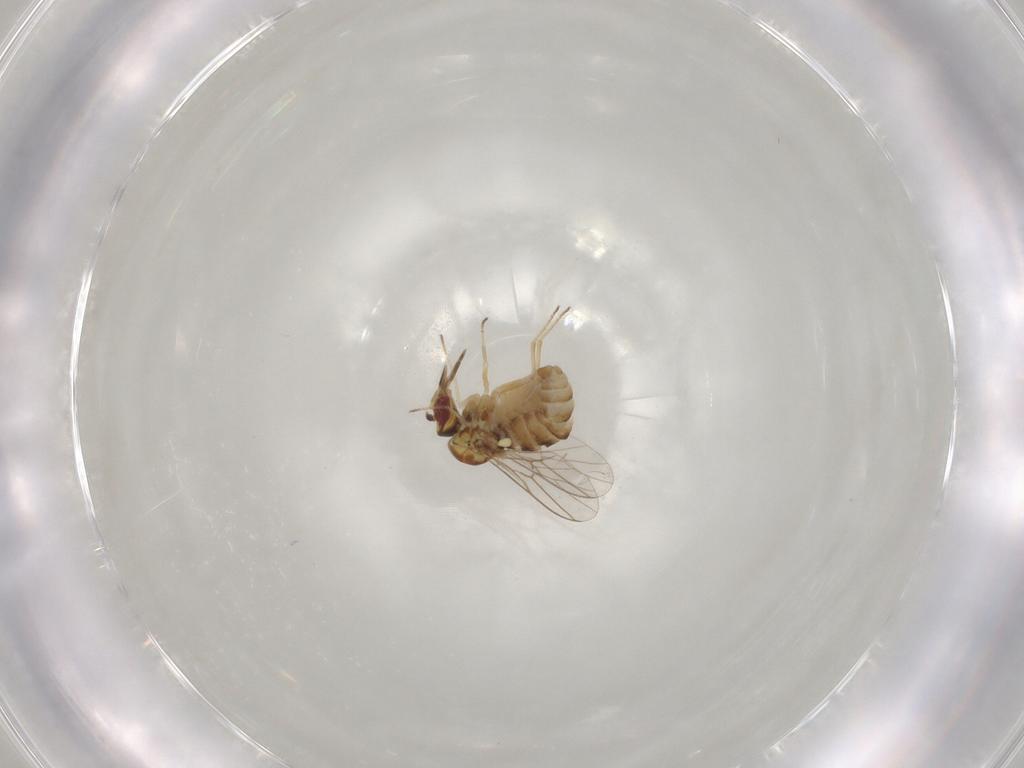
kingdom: Animalia
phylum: Arthropoda
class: Insecta
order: Diptera
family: Mythicomyiidae
